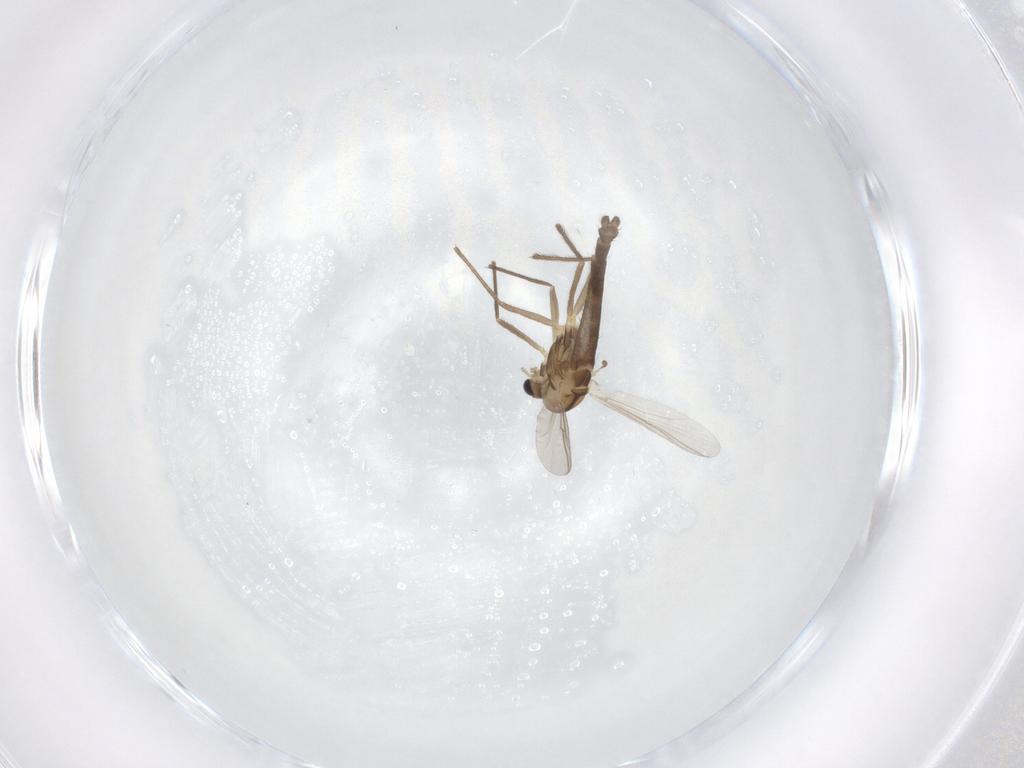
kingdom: Animalia
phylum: Arthropoda
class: Insecta
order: Diptera
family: Chironomidae
